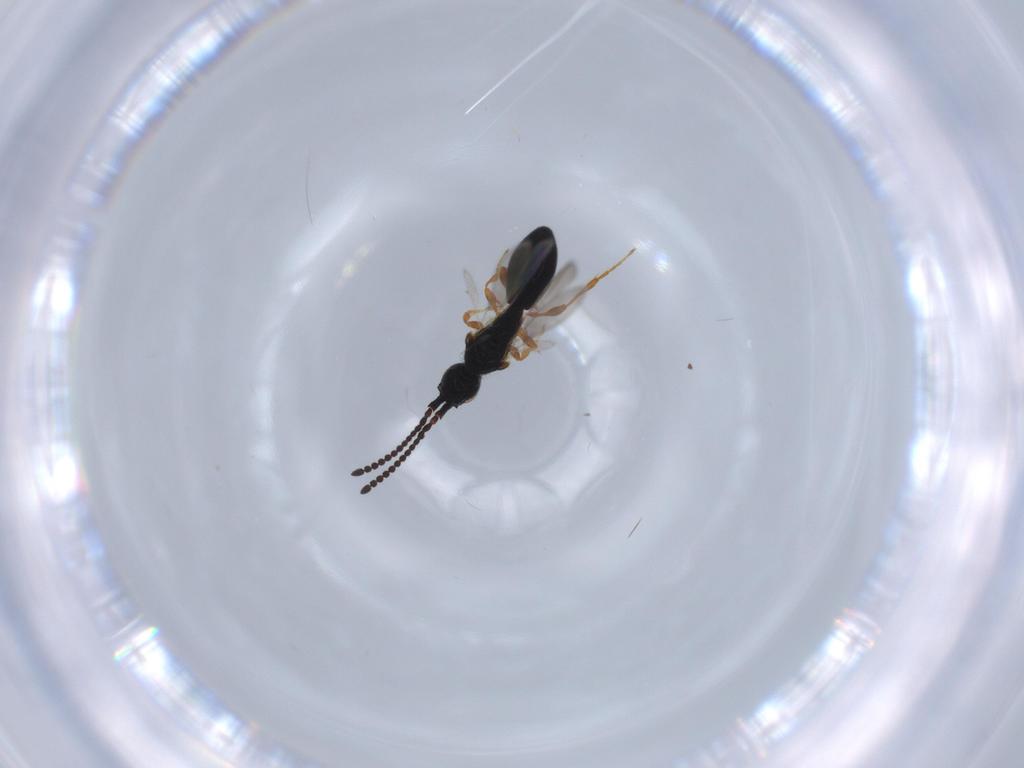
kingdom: Animalia
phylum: Arthropoda
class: Insecta
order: Hymenoptera
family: Diapriidae
